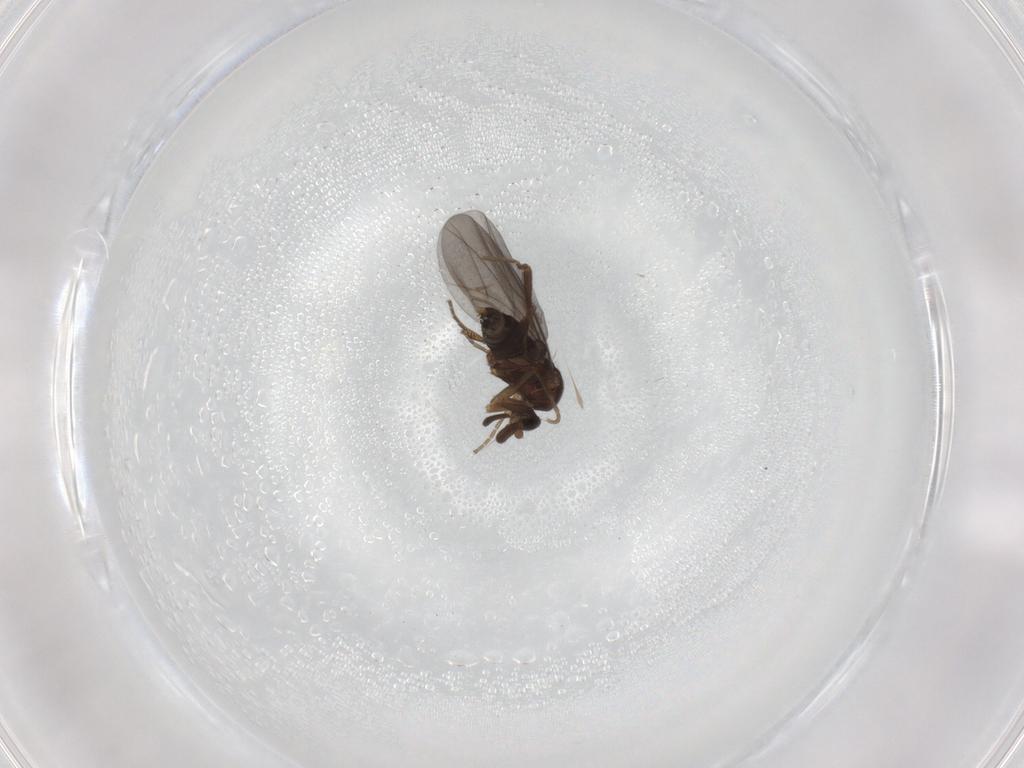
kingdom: Animalia
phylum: Arthropoda
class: Insecta
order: Diptera
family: Phoridae
